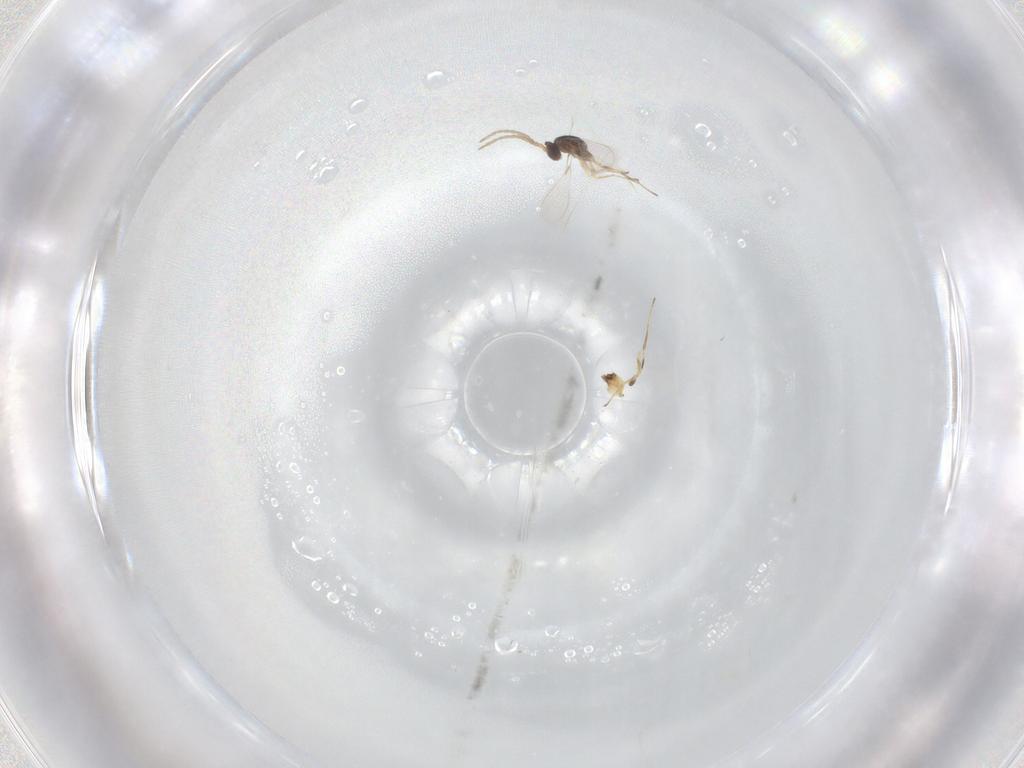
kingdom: Animalia
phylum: Arthropoda
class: Insecta
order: Hymenoptera
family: Mymaridae
